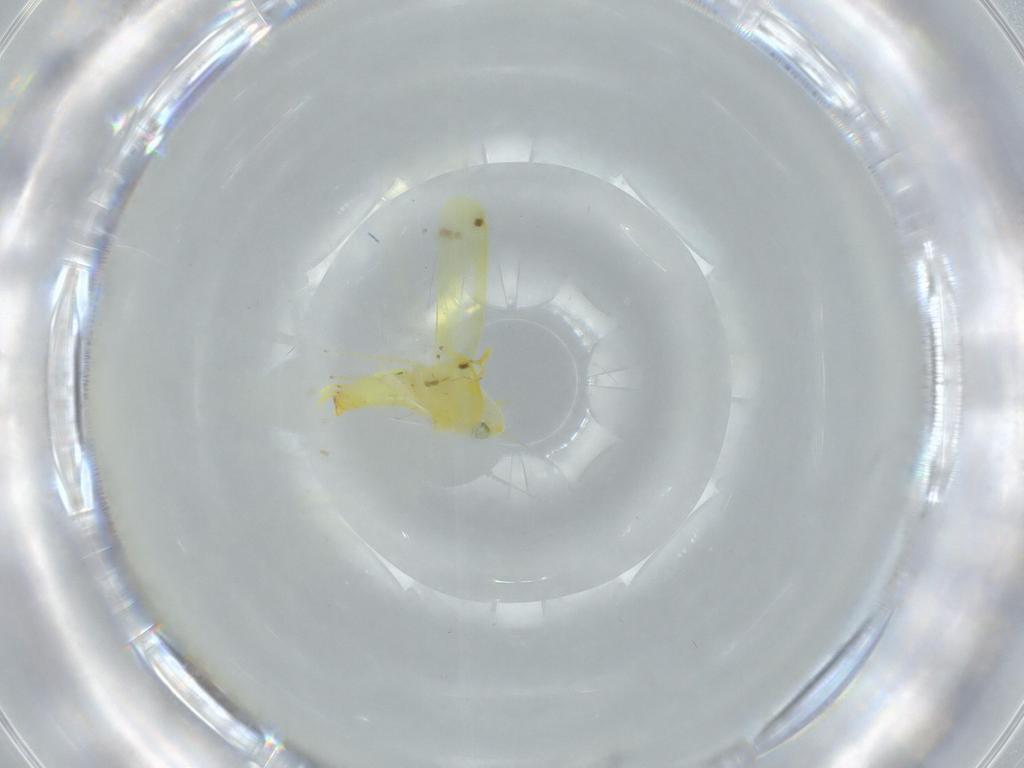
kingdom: Animalia
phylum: Arthropoda
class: Insecta
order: Hemiptera
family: Cicadellidae
